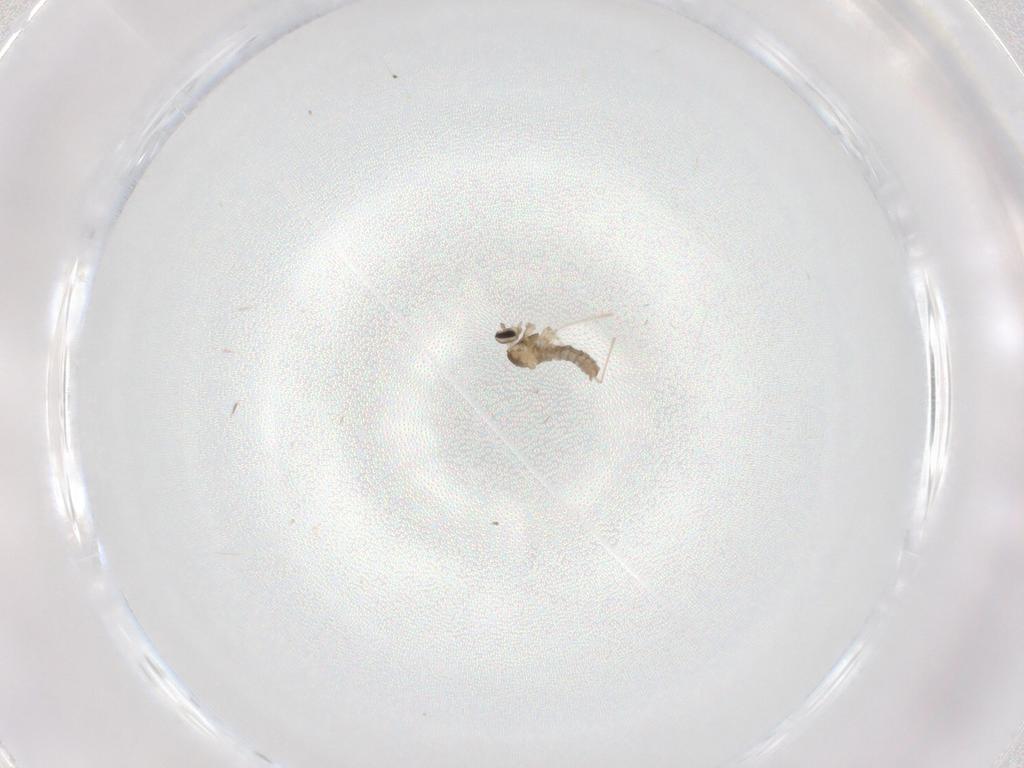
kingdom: Animalia
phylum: Arthropoda
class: Insecta
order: Diptera
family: Cecidomyiidae
